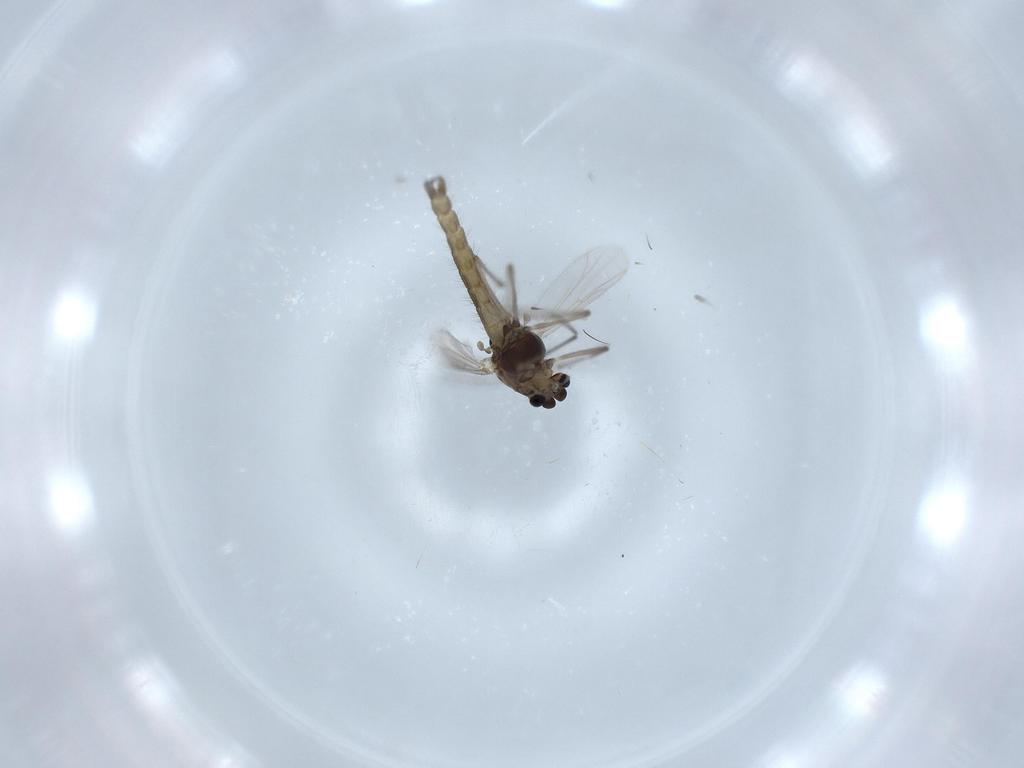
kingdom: Animalia
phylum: Arthropoda
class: Insecta
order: Diptera
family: Chironomidae
